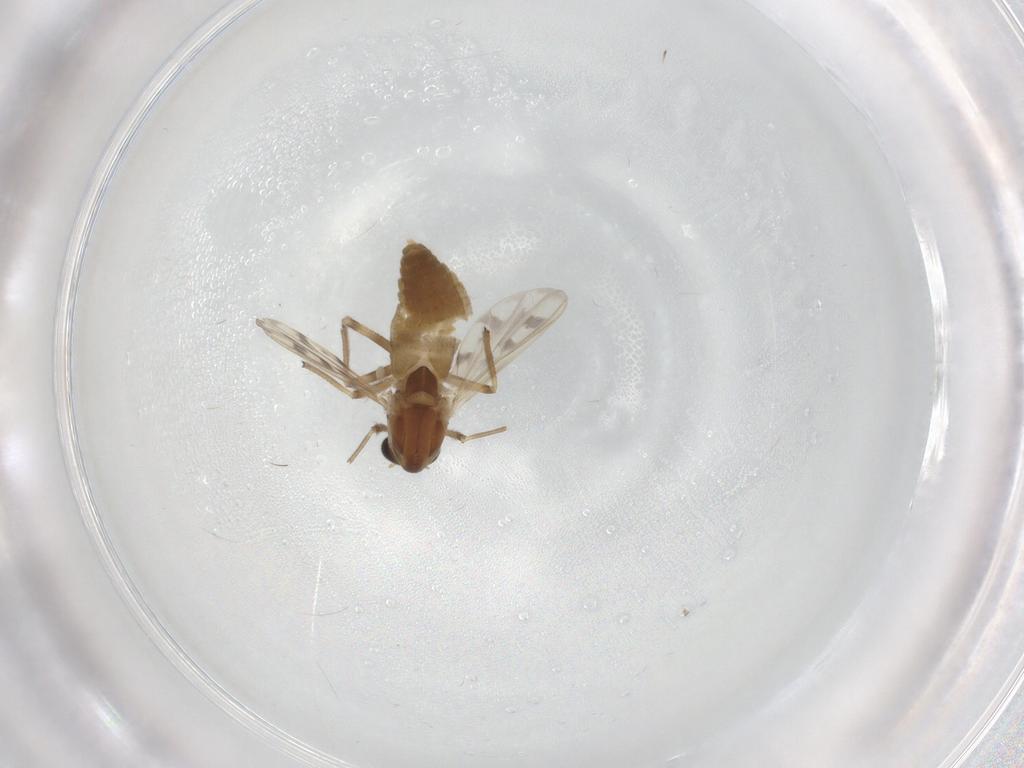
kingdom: Animalia
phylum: Arthropoda
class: Insecta
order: Diptera
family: Chironomidae
